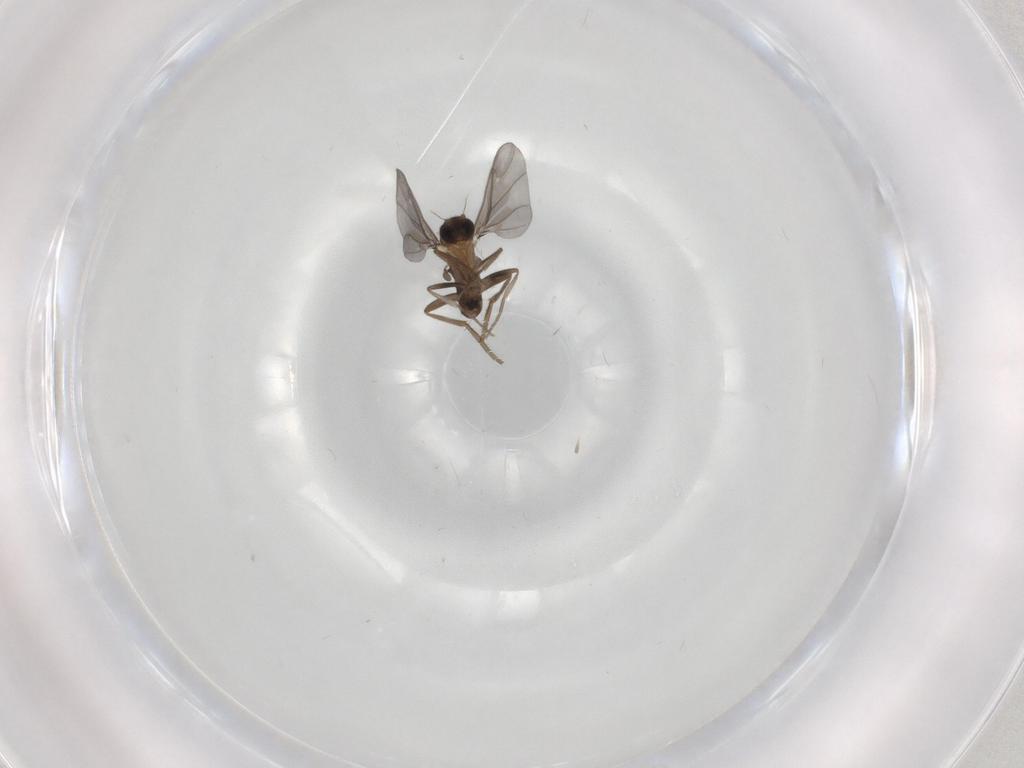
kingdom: Animalia
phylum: Arthropoda
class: Insecta
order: Diptera
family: Phoridae
